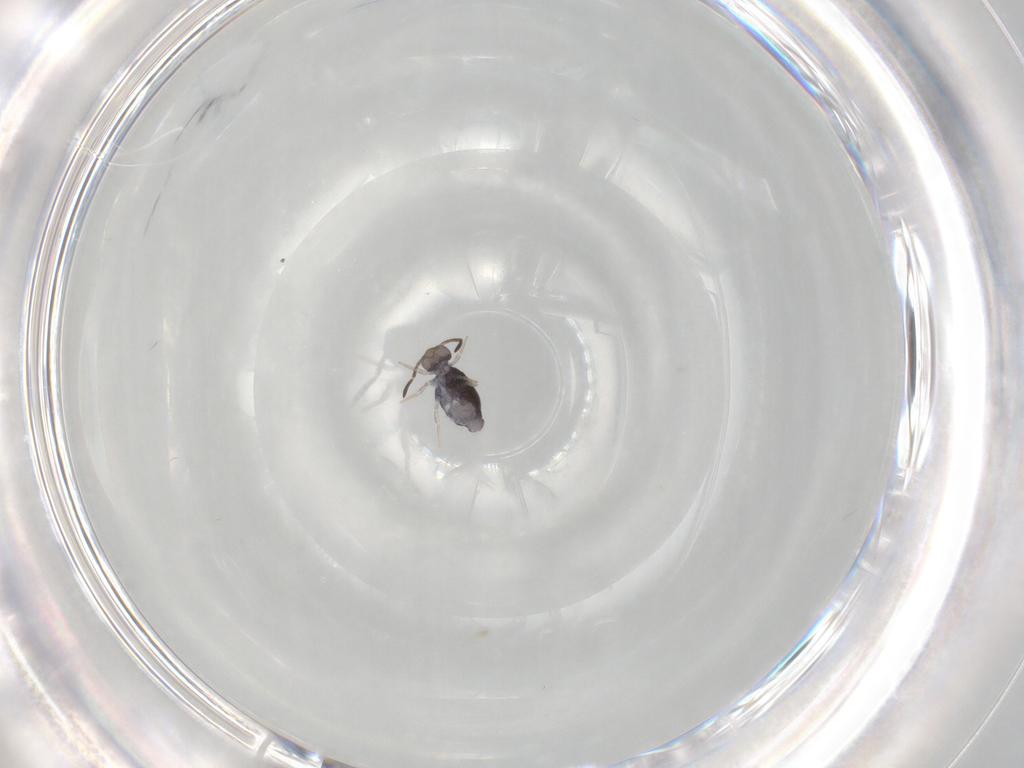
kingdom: Animalia
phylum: Arthropoda
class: Collembola
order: Symphypleona
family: Katiannidae
